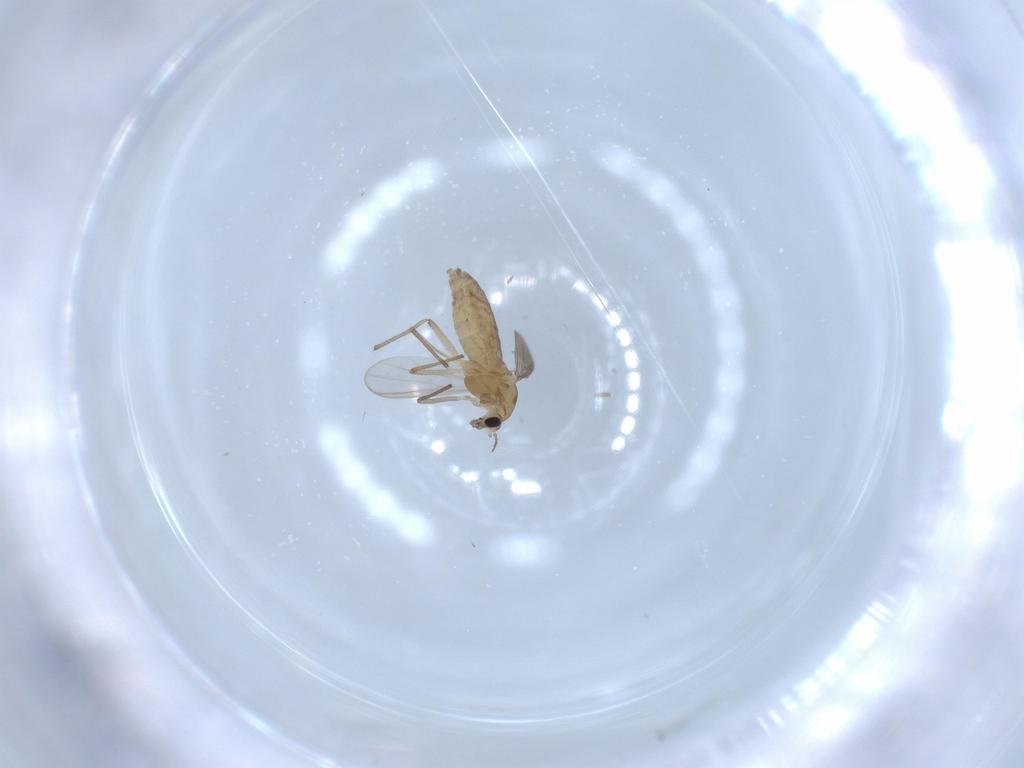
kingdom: Animalia
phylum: Arthropoda
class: Insecta
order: Diptera
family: Chironomidae
